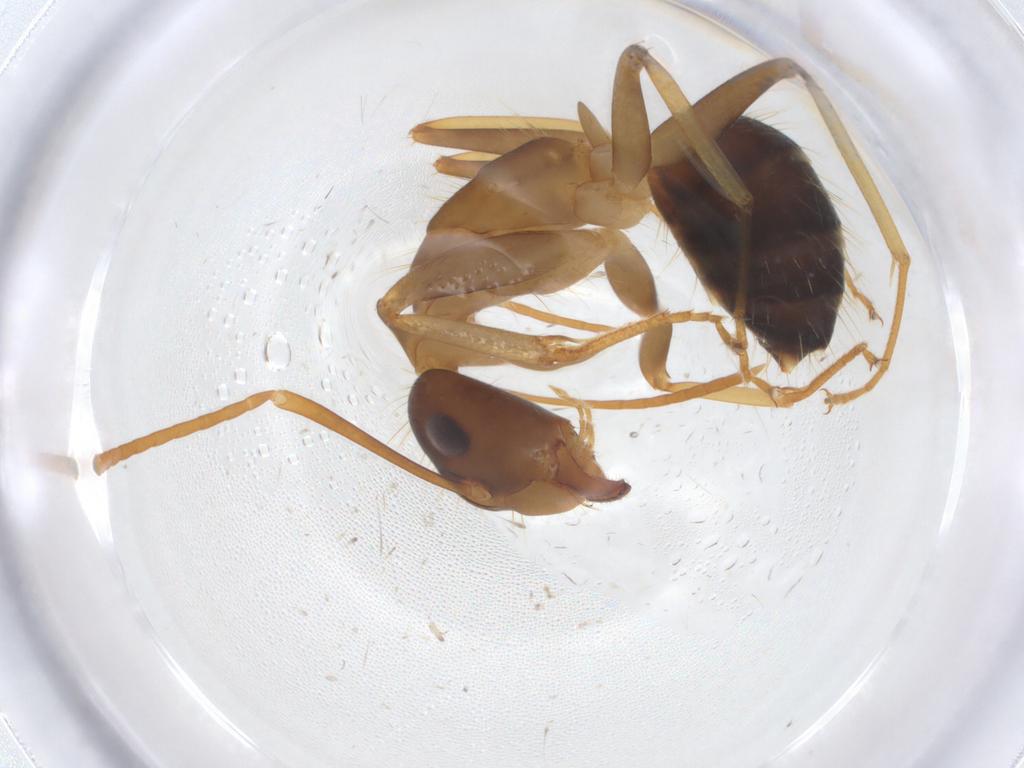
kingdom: Animalia
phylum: Arthropoda
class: Insecta
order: Hymenoptera
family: Formicidae
